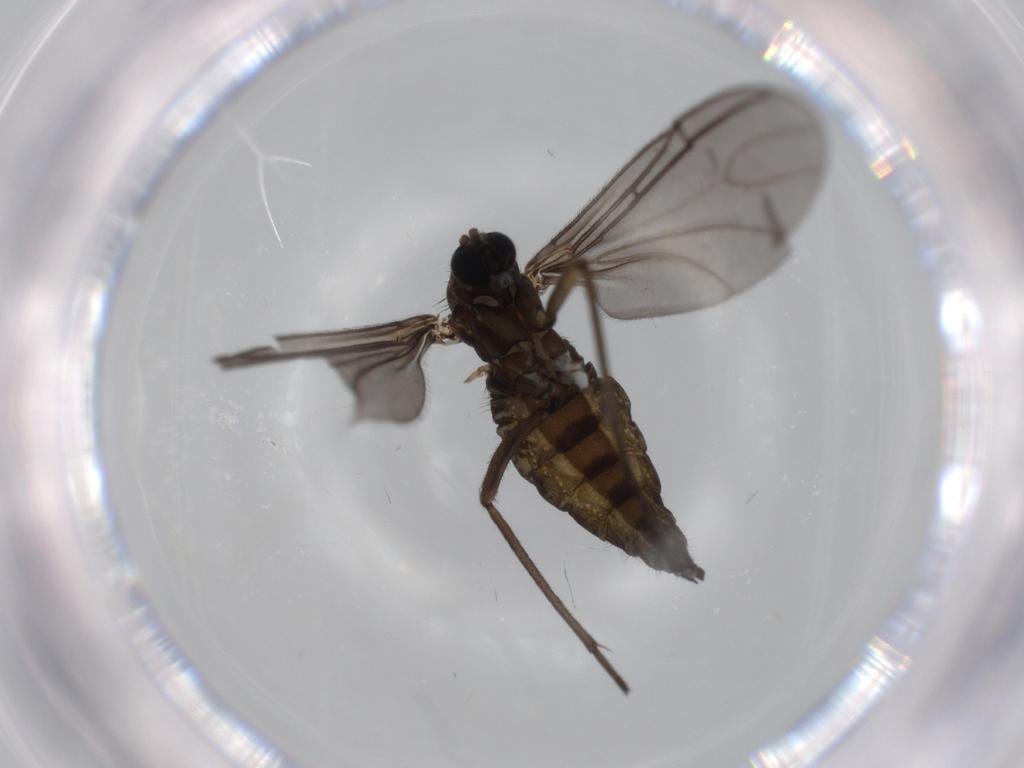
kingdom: Animalia
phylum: Arthropoda
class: Insecta
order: Diptera
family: Sciaridae
